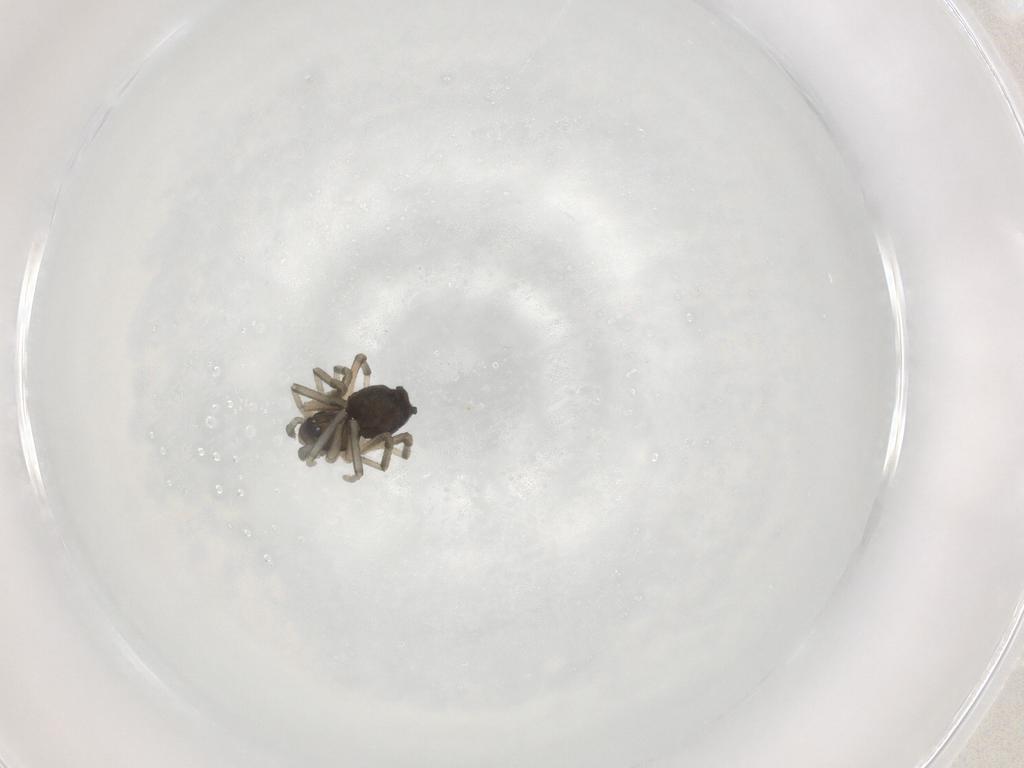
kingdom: Animalia
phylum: Arthropoda
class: Arachnida
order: Araneae
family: Linyphiidae
